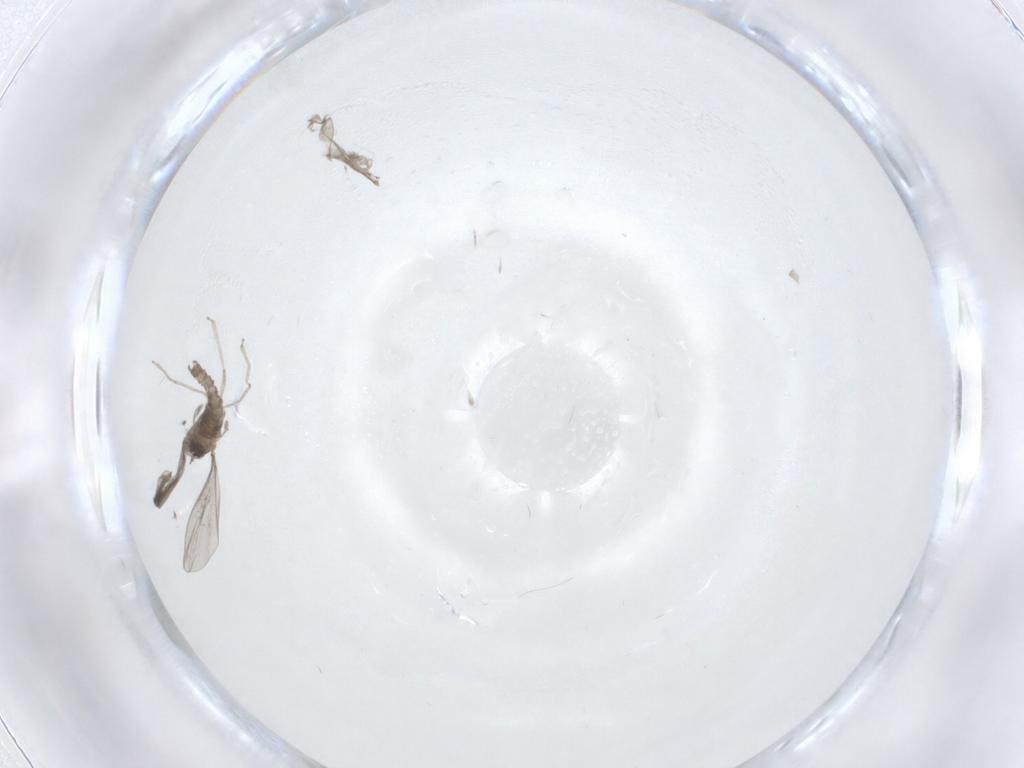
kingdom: Animalia
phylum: Arthropoda
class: Insecta
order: Diptera
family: Cecidomyiidae
